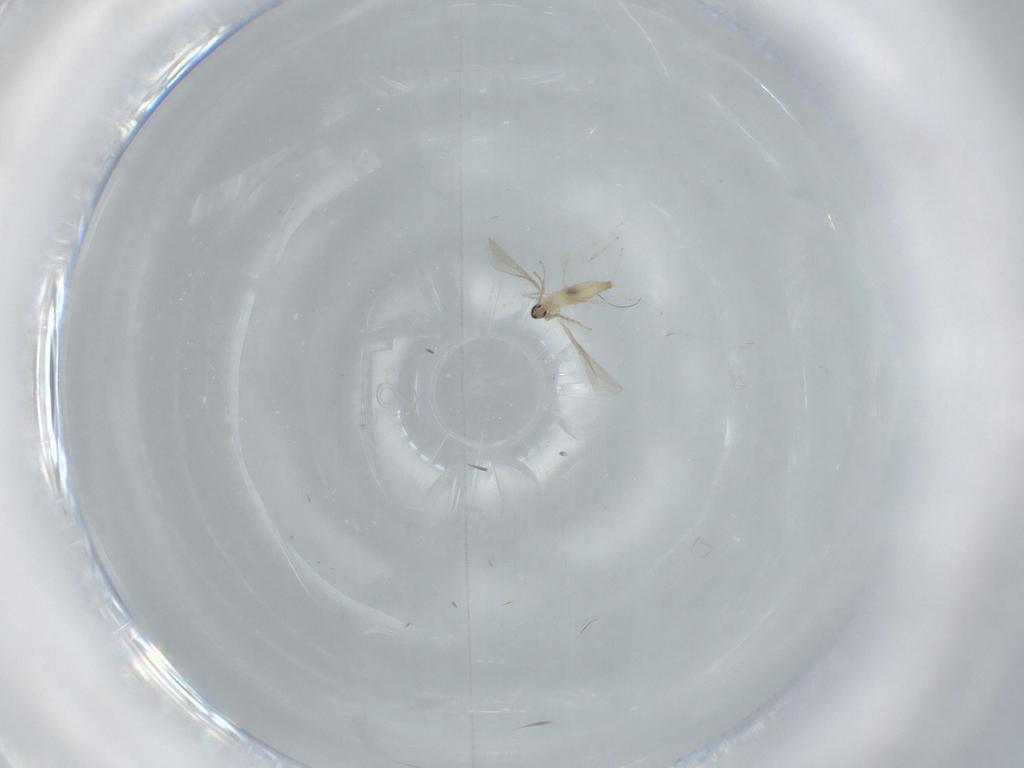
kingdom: Animalia
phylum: Arthropoda
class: Insecta
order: Diptera
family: Cecidomyiidae
